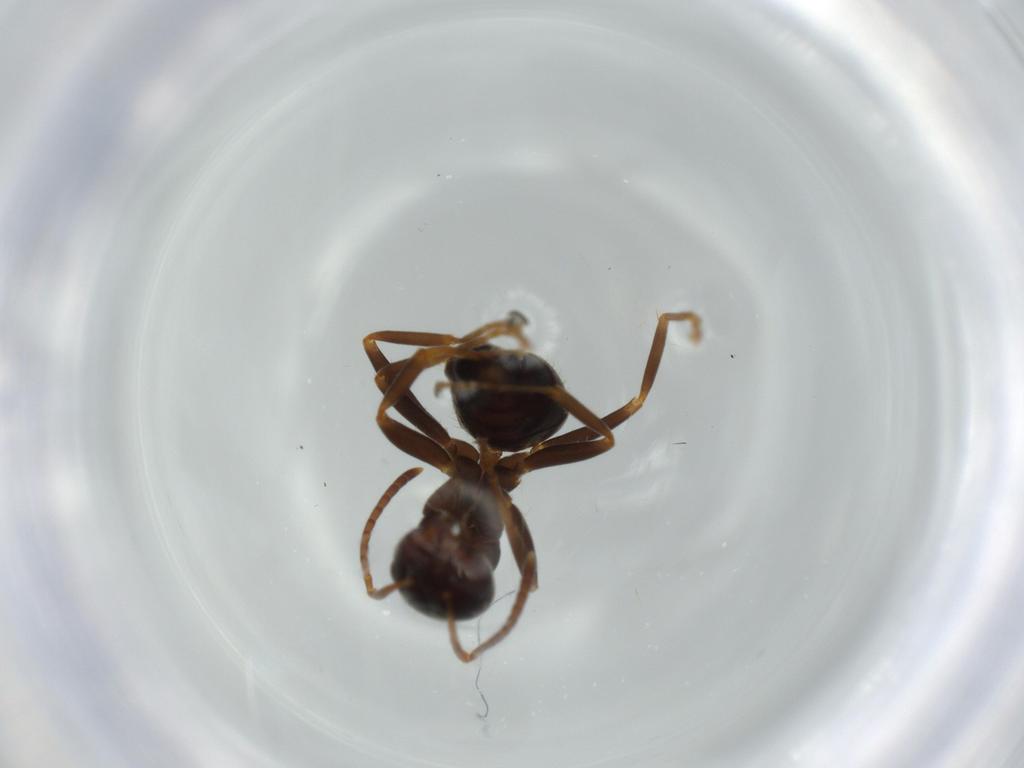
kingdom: Animalia
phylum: Arthropoda
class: Insecta
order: Hymenoptera
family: Formicidae
